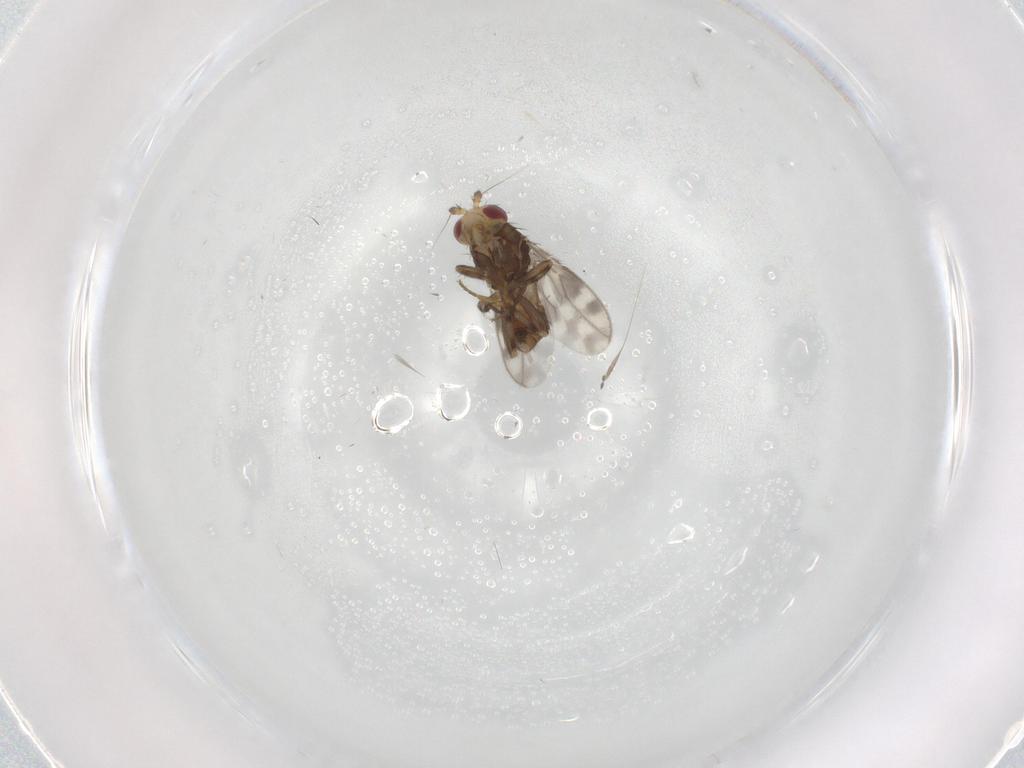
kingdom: Animalia
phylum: Arthropoda
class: Insecta
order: Diptera
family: Sphaeroceridae
